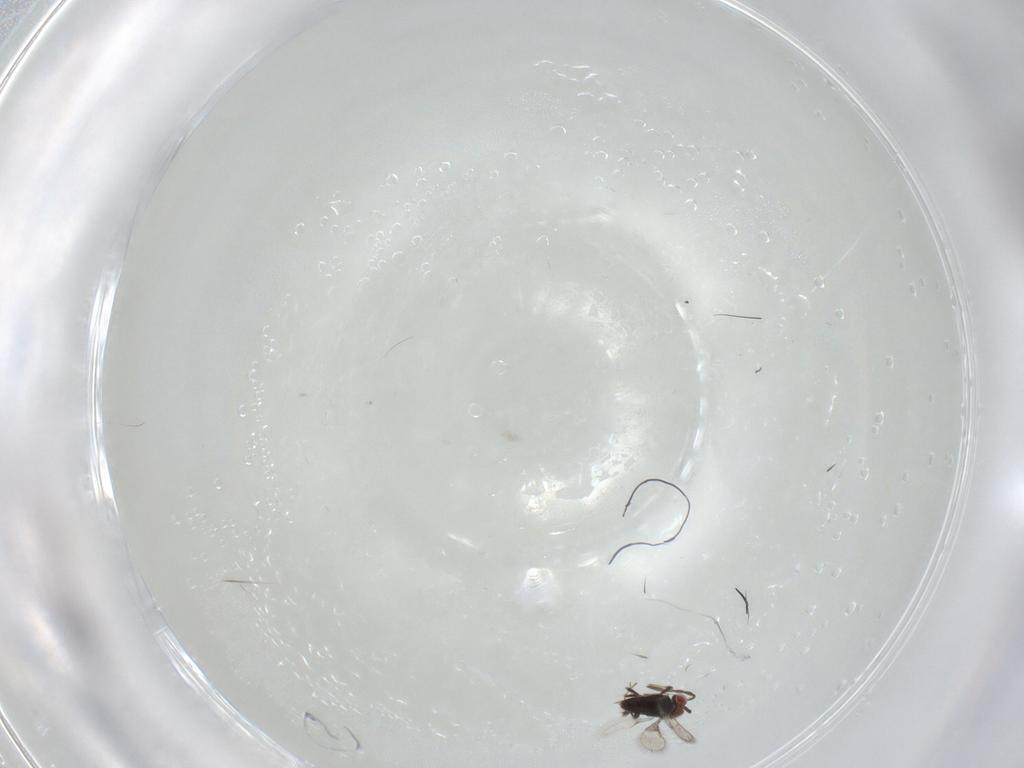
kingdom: Animalia
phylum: Arthropoda
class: Insecta
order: Hymenoptera
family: Azotidae
